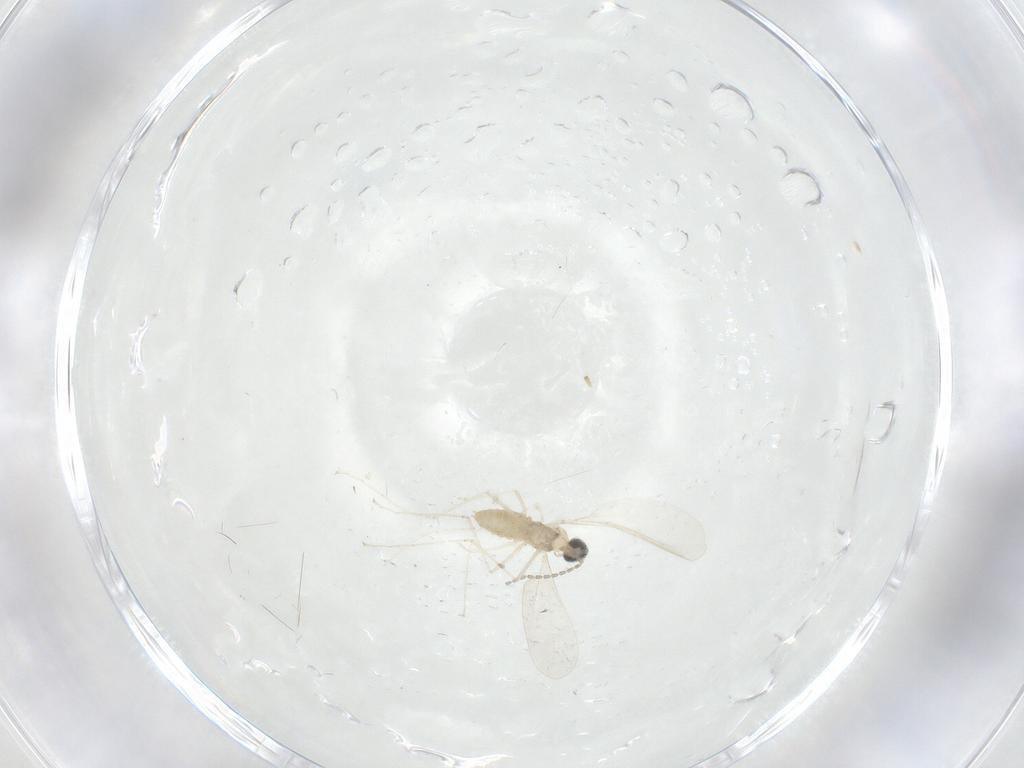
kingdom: Animalia
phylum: Arthropoda
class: Insecta
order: Diptera
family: Cecidomyiidae
